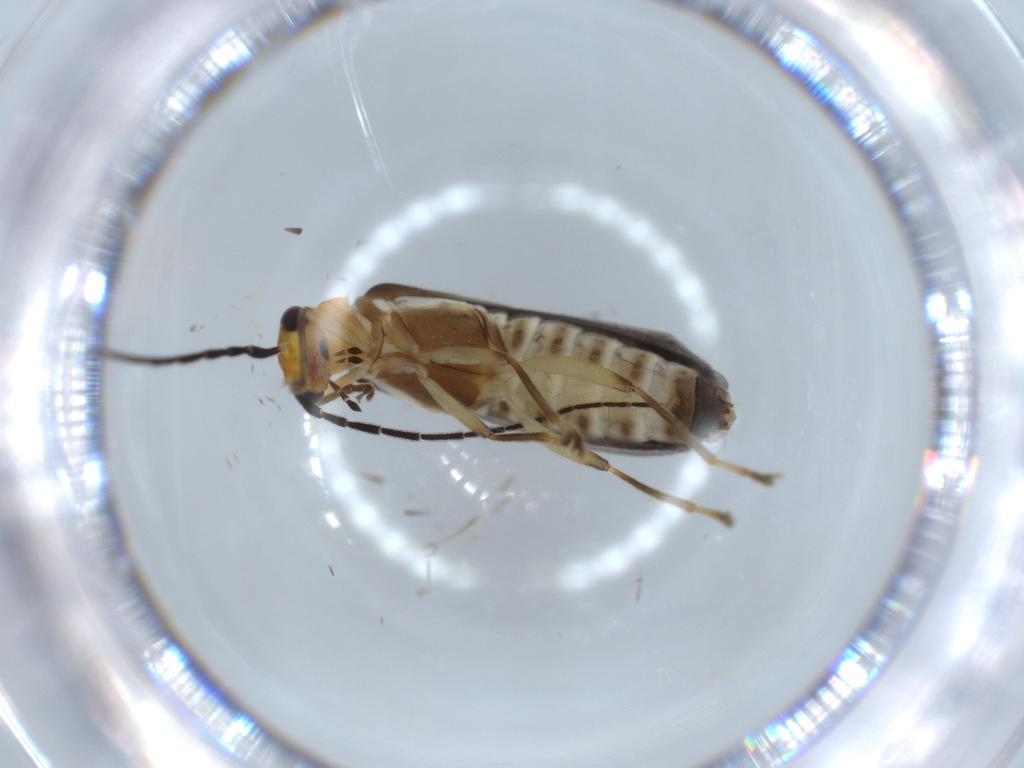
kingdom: Animalia
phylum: Arthropoda
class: Insecta
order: Coleoptera
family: Cantharidae
